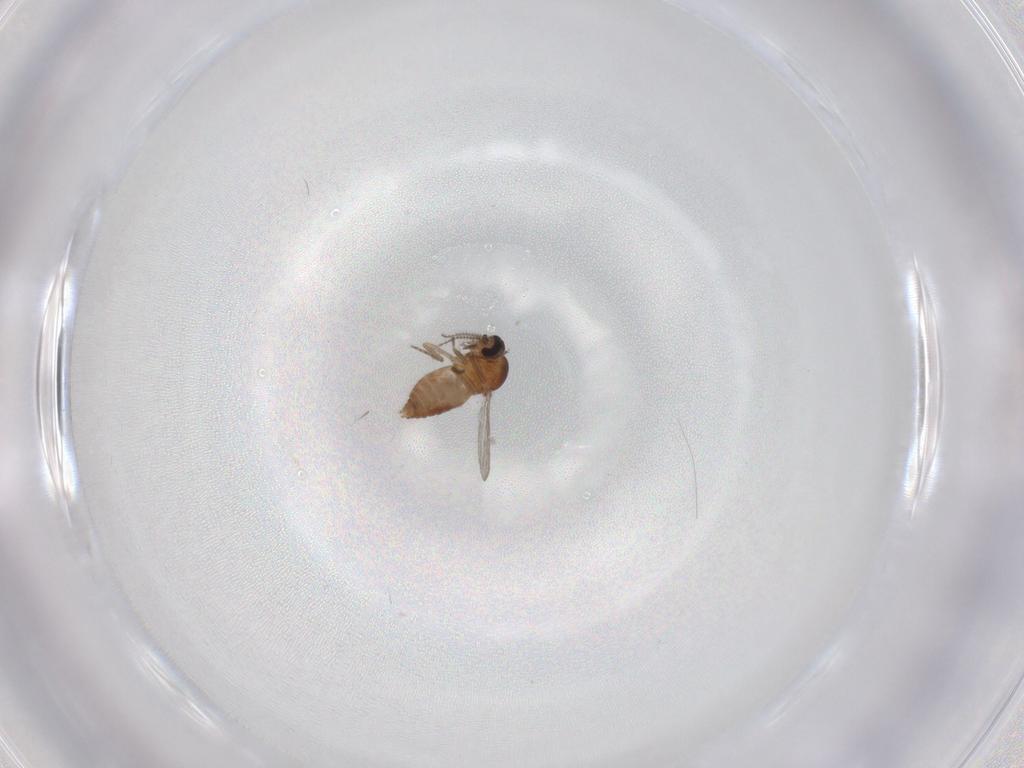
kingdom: Animalia
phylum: Arthropoda
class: Insecta
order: Diptera
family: Ceratopogonidae
